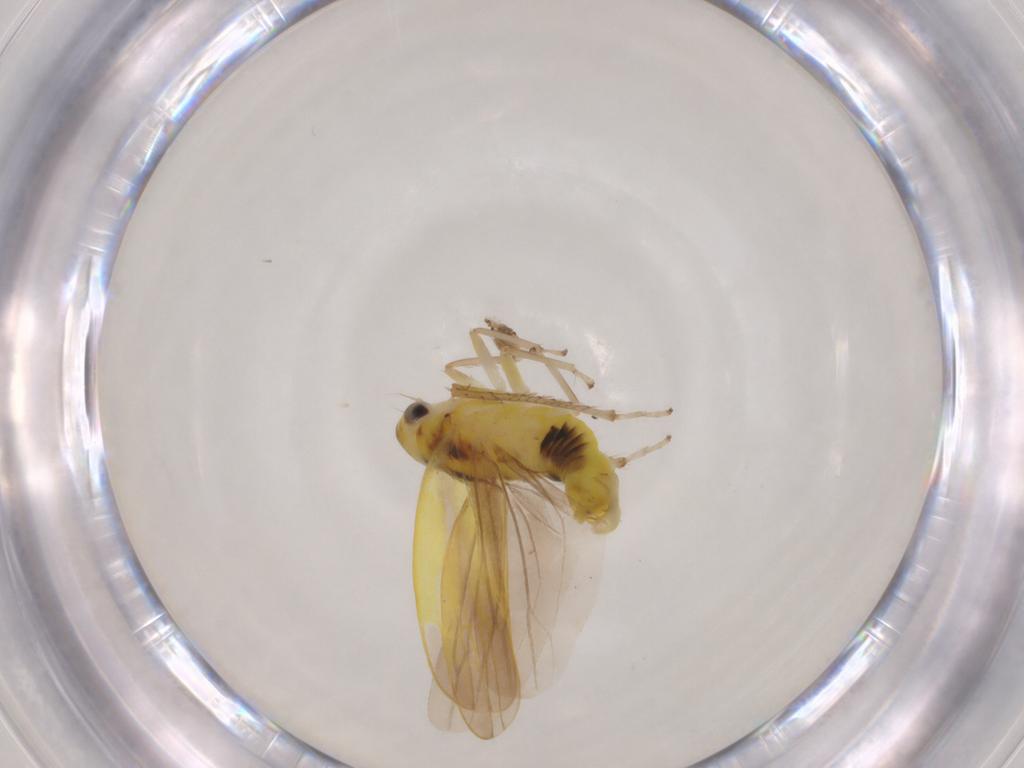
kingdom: Animalia
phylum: Arthropoda
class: Insecta
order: Hemiptera
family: Cicadellidae
